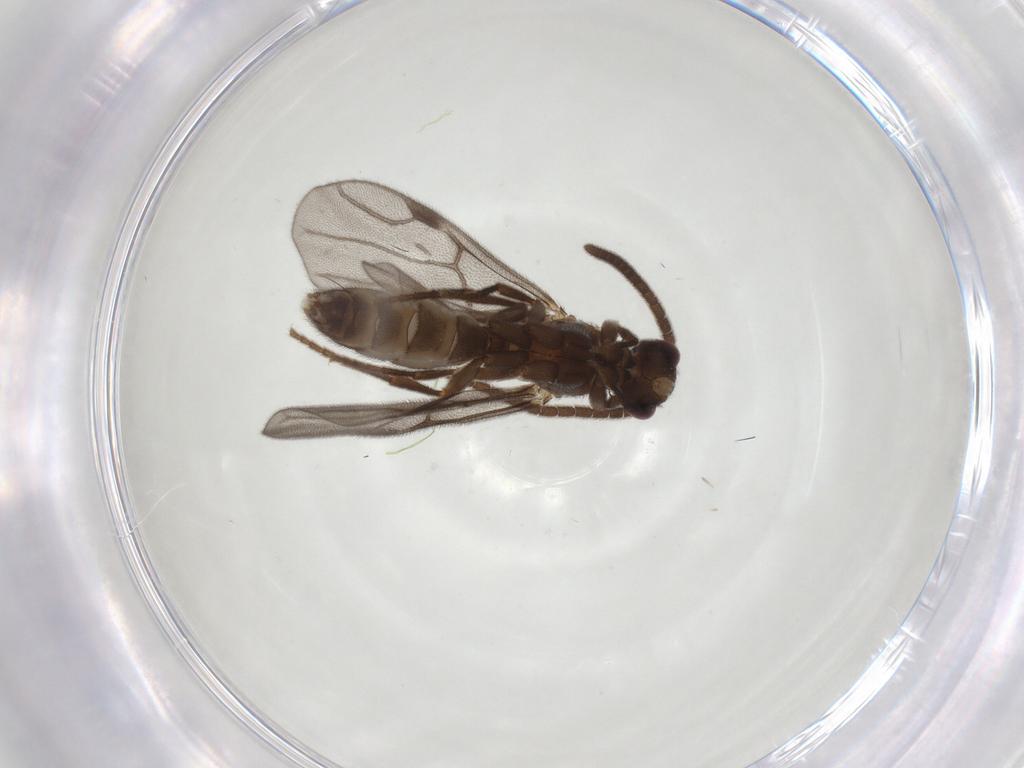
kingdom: Animalia
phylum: Arthropoda
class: Insecta
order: Hymenoptera
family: Formicidae
